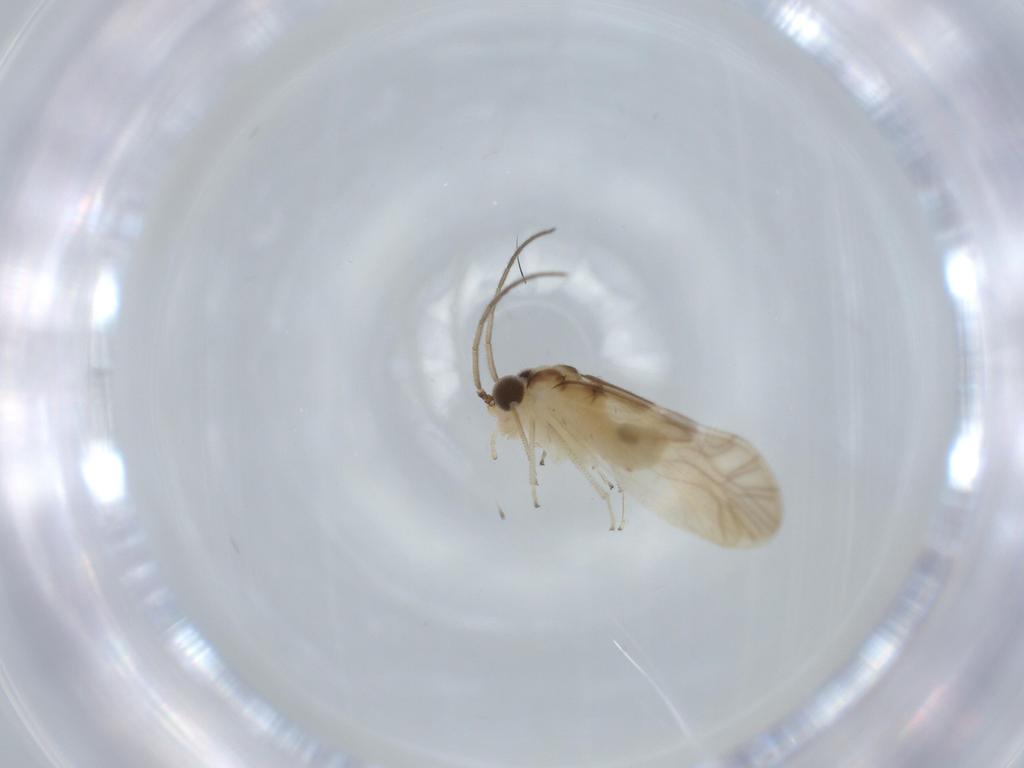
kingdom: Animalia
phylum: Arthropoda
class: Insecta
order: Psocodea
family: Caeciliusidae
